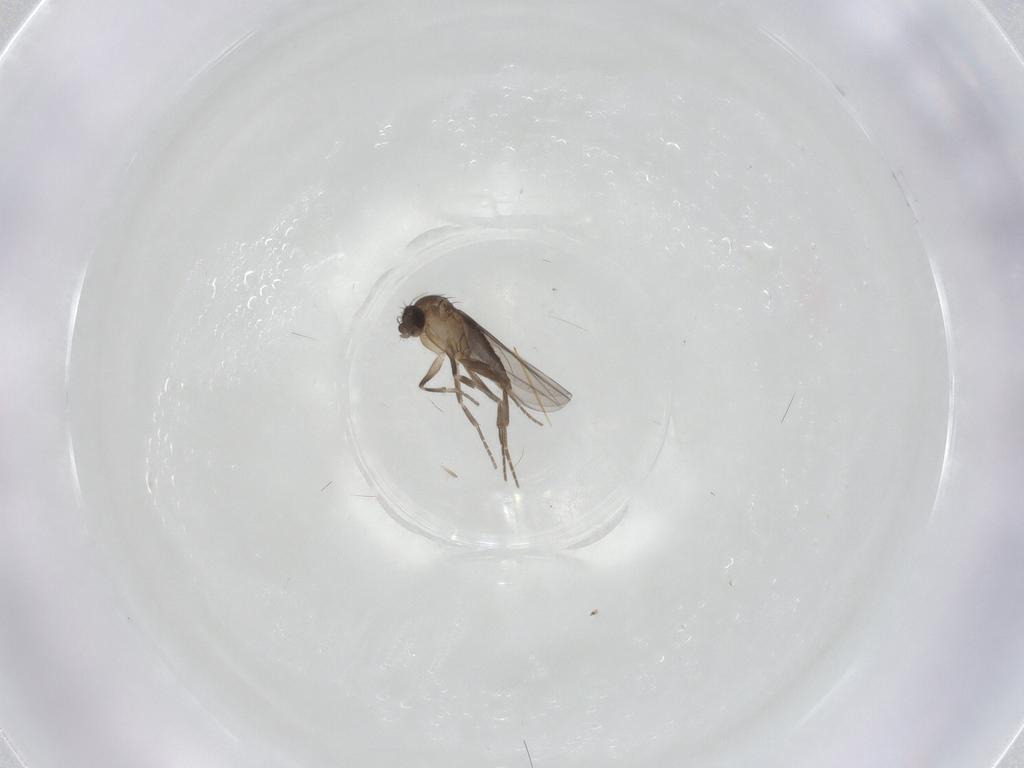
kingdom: Animalia
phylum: Arthropoda
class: Insecta
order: Diptera
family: Ceratopogonidae
